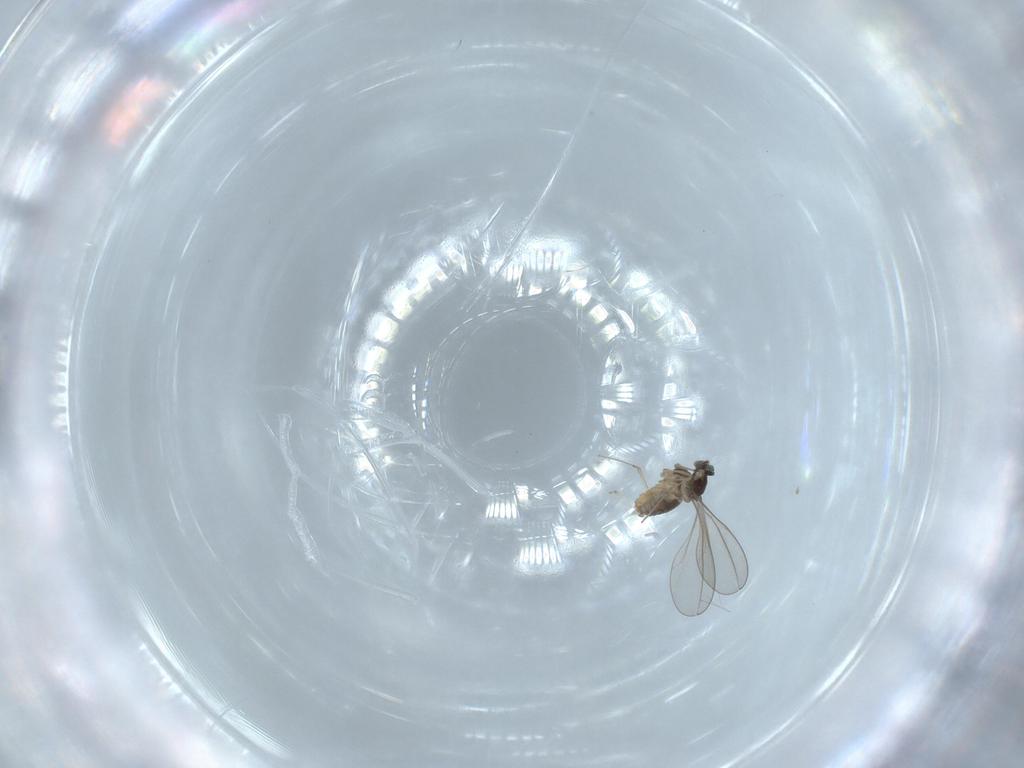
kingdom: Animalia
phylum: Arthropoda
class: Insecta
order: Diptera
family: Cecidomyiidae
